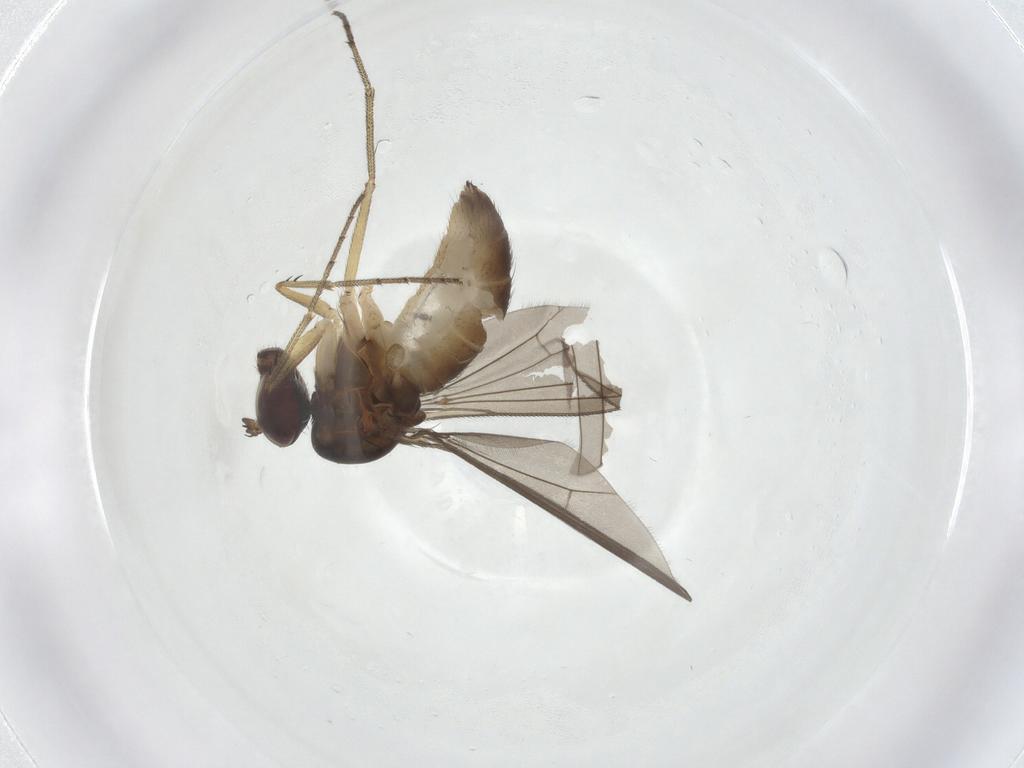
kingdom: Animalia
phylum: Arthropoda
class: Insecta
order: Diptera
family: Dolichopodidae
